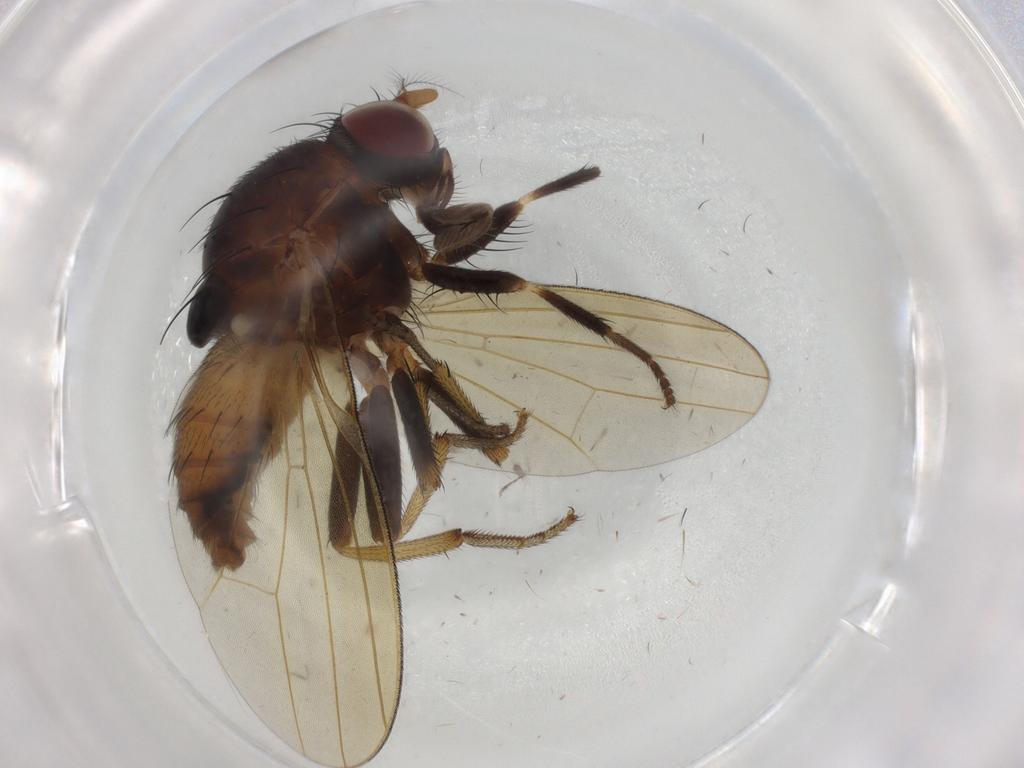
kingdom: Animalia
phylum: Arthropoda
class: Insecta
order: Diptera
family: Lauxaniidae
